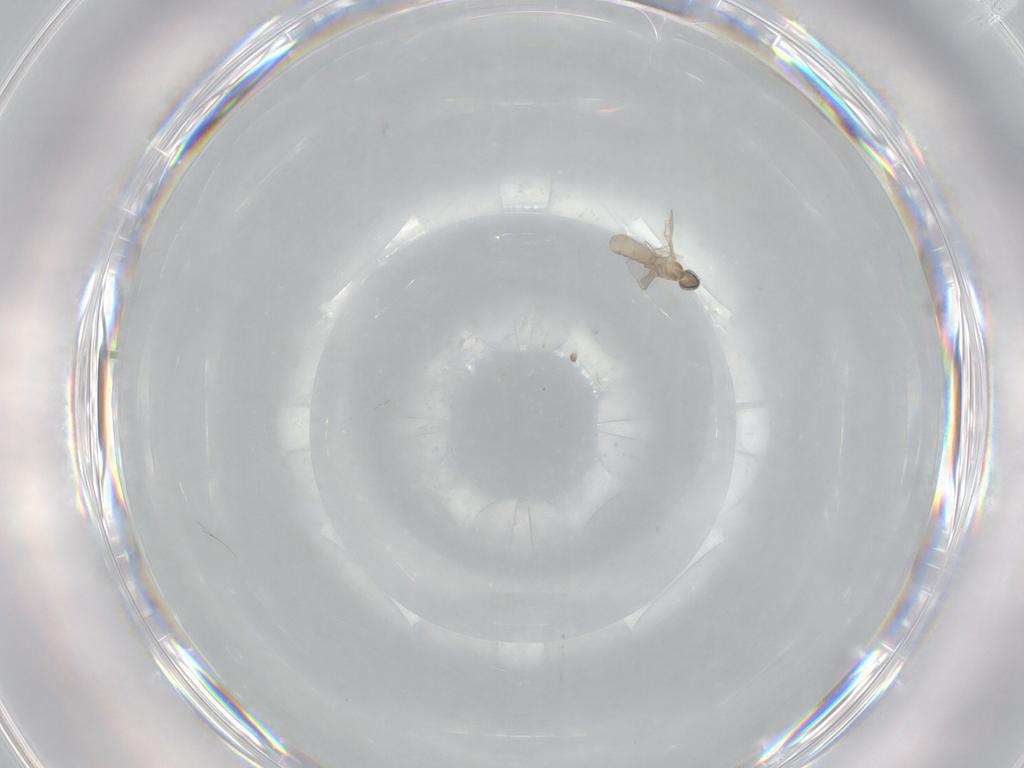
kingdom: Animalia
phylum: Arthropoda
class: Insecta
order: Diptera
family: Cecidomyiidae
